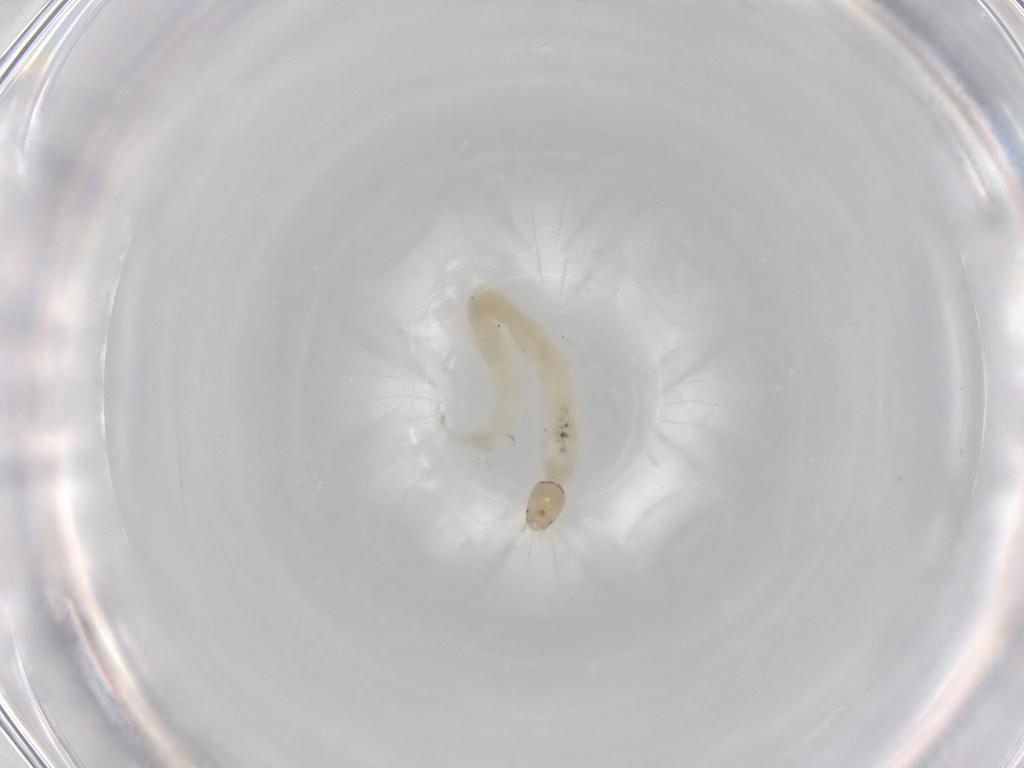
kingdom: Animalia
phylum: Arthropoda
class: Insecta
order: Diptera
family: Chironomidae
